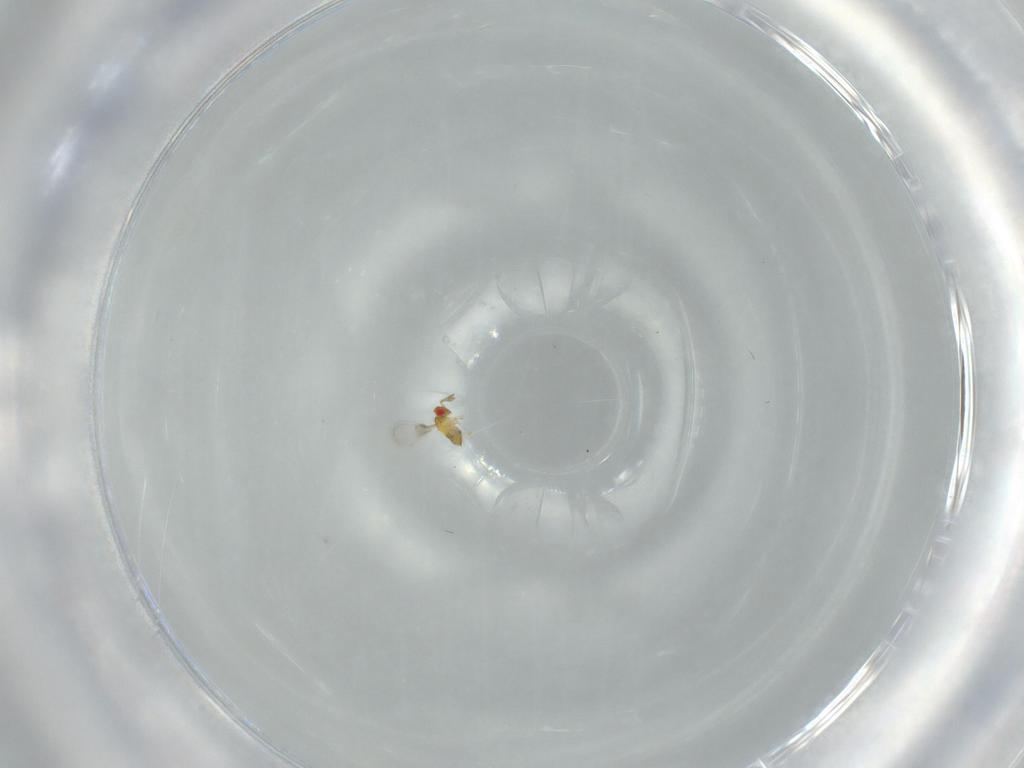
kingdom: Animalia
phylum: Arthropoda
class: Insecta
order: Hymenoptera
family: Trichogrammatidae
